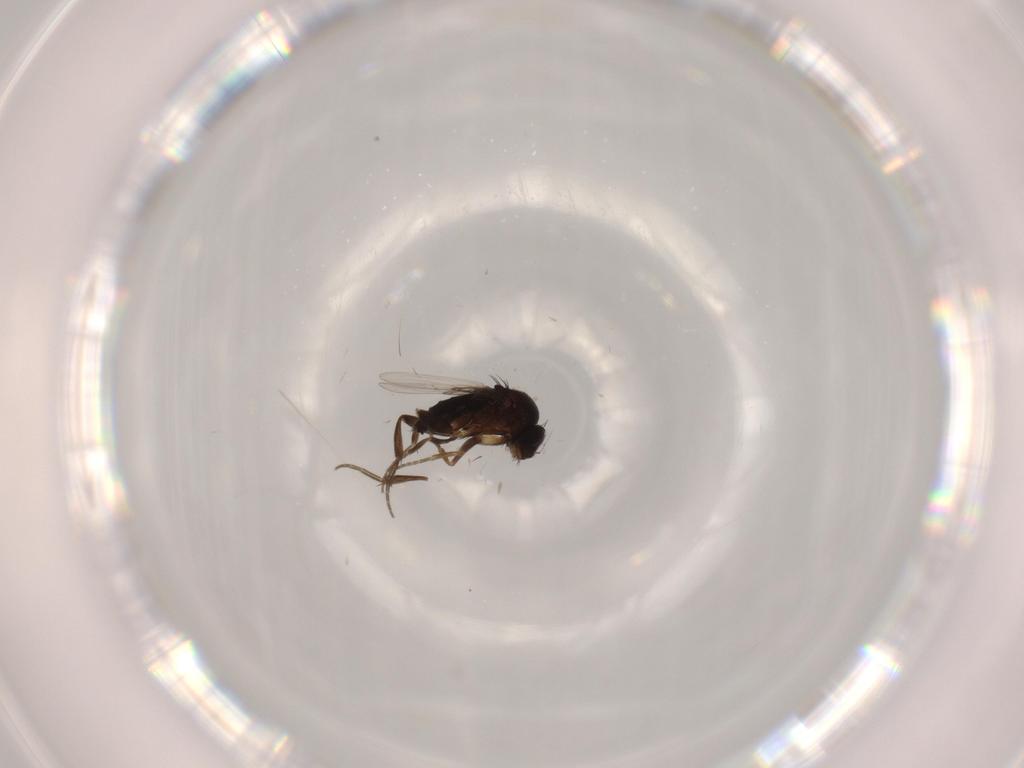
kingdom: Animalia
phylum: Arthropoda
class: Insecta
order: Diptera
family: Phoridae
